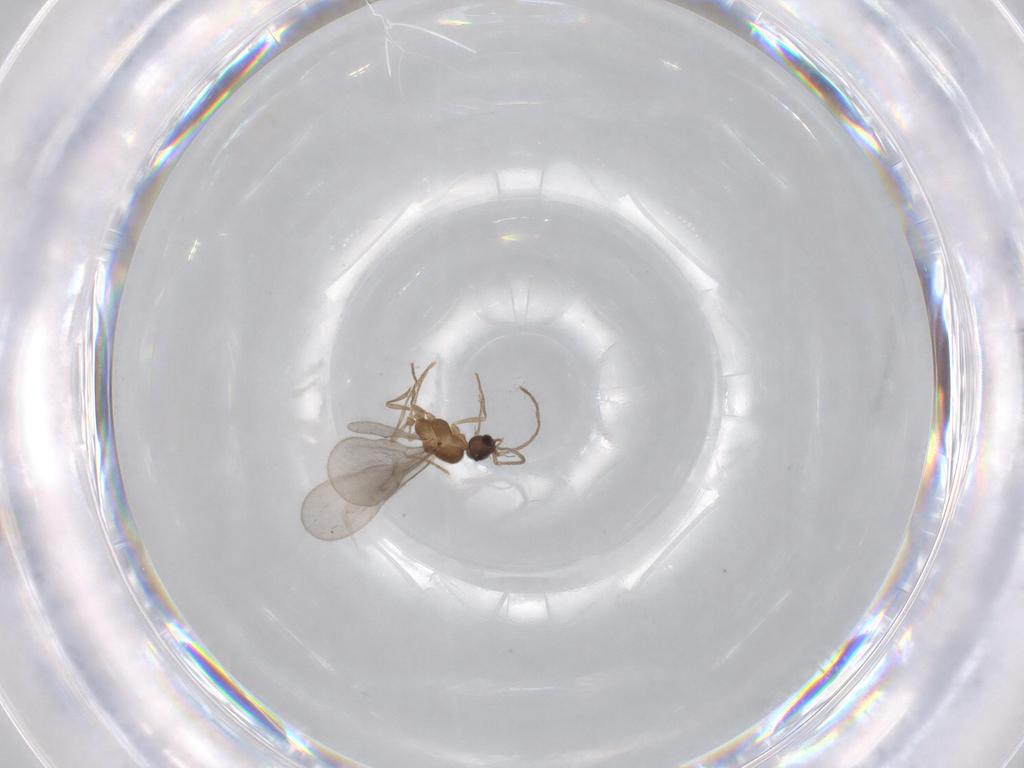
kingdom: Animalia
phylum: Arthropoda
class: Insecta
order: Hymenoptera
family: Formicidae
